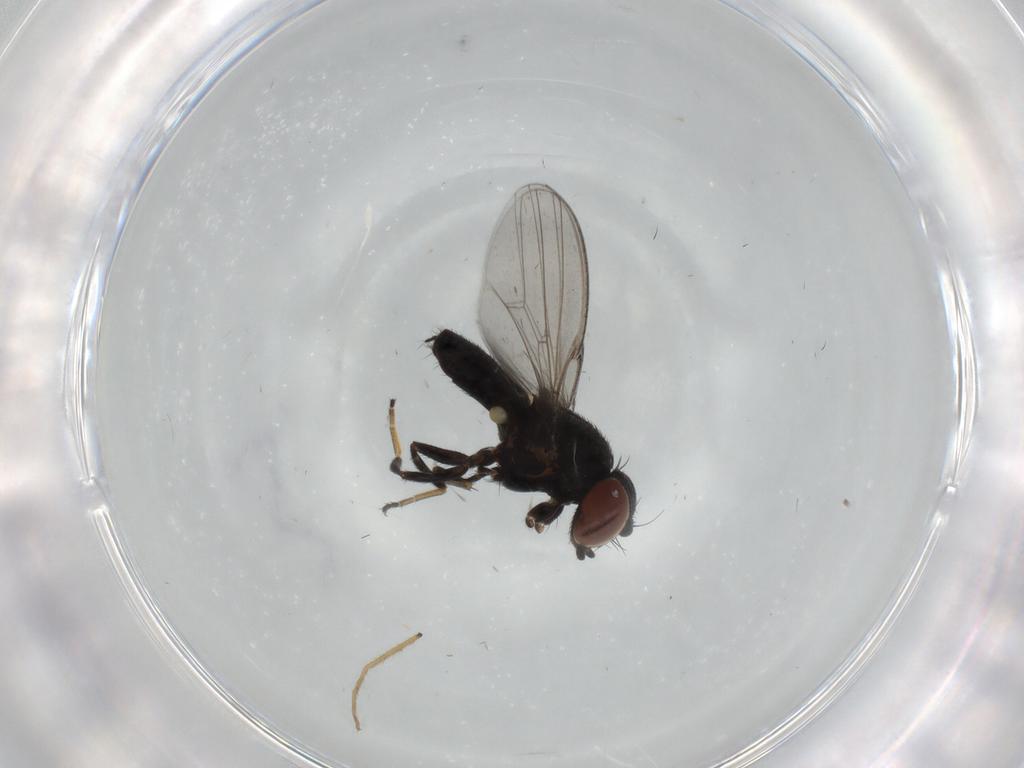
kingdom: Animalia
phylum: Arthropoda
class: Insecta
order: Diptera
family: Milichiidae
